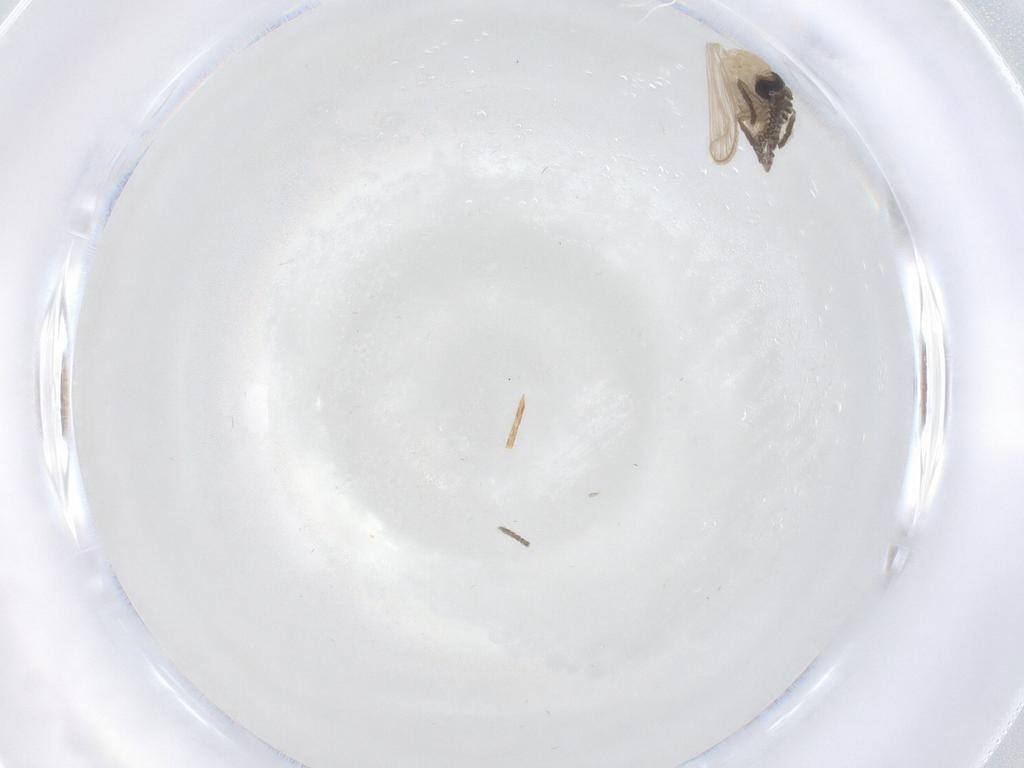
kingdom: Animalia
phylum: Arthropoda
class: Insecta
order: Diptera
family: Psychodidae
